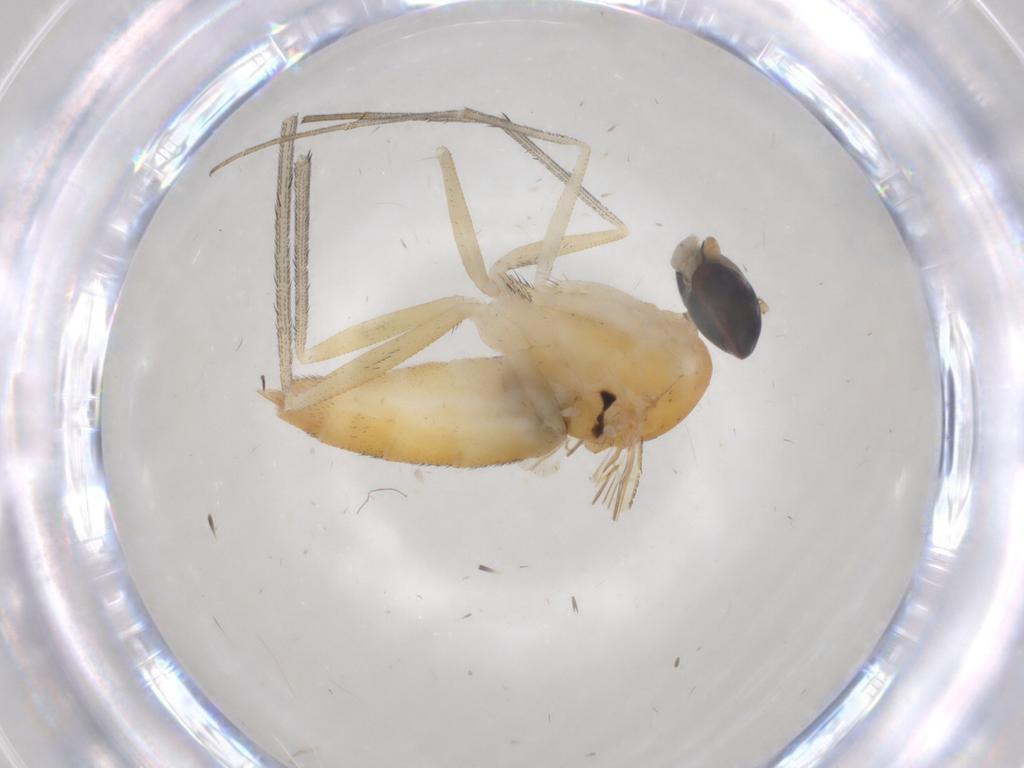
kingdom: Animalia
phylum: Arthropoda
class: Insecta
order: Diptera
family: Dolichopodidae
